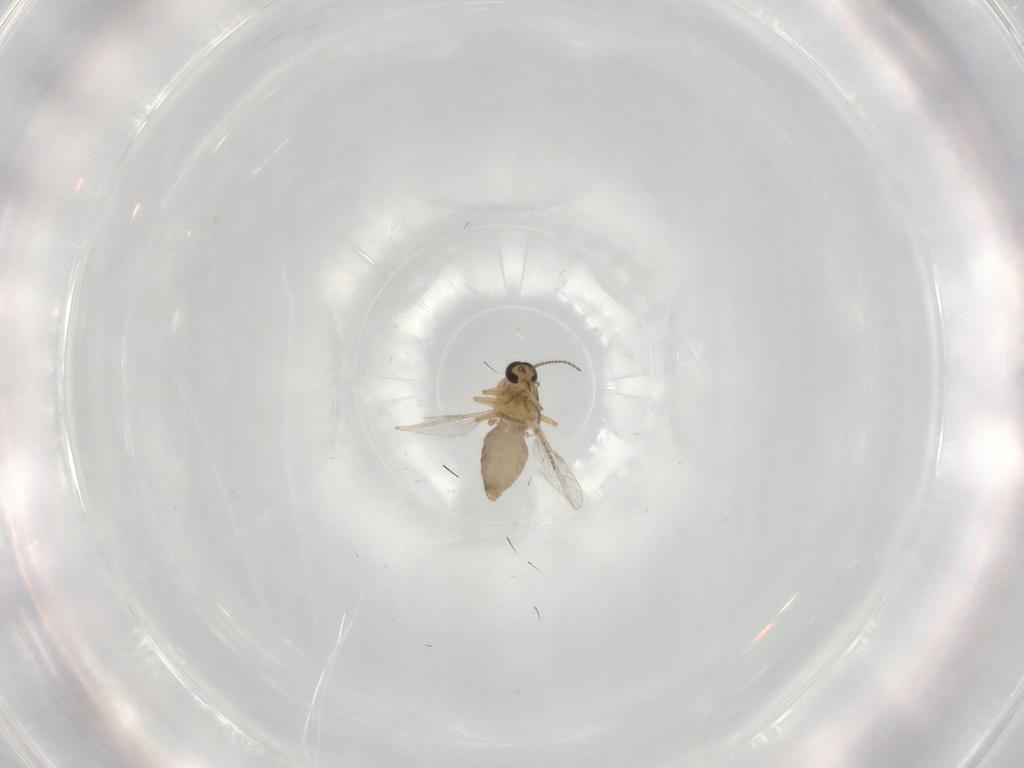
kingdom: Animalia
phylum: Arthropoda
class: Insecta
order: Diptera
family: Ceratopogonidae
